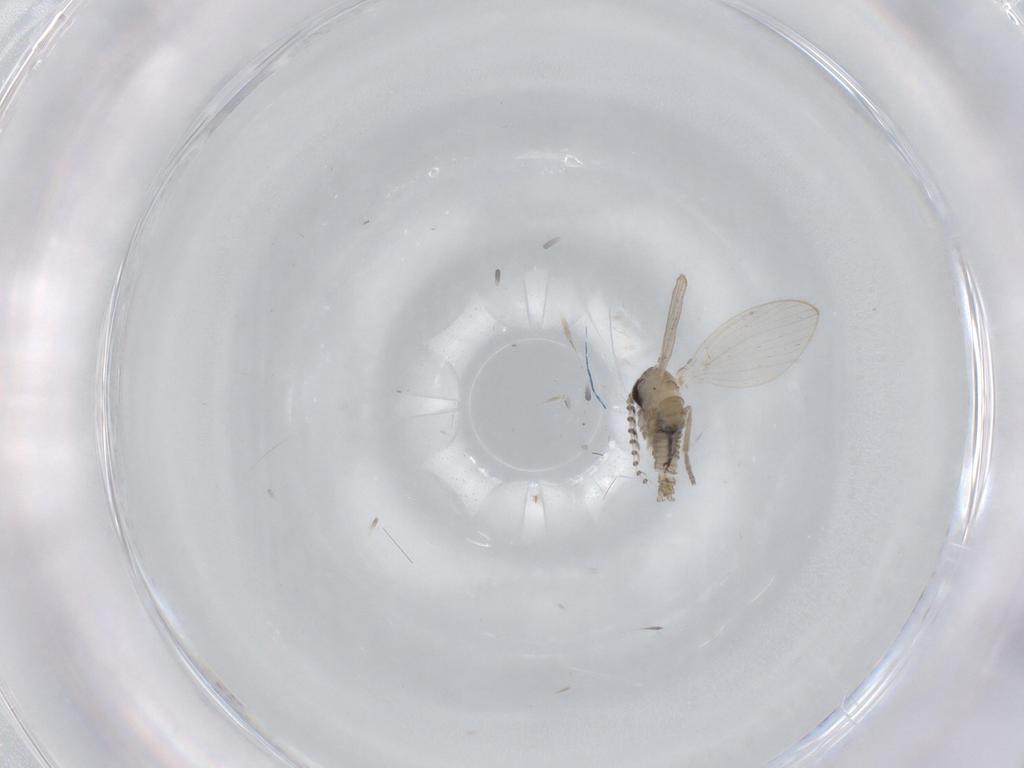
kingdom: Animalia
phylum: Arthropoda
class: Insecta
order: Diptera
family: Psychodidae
